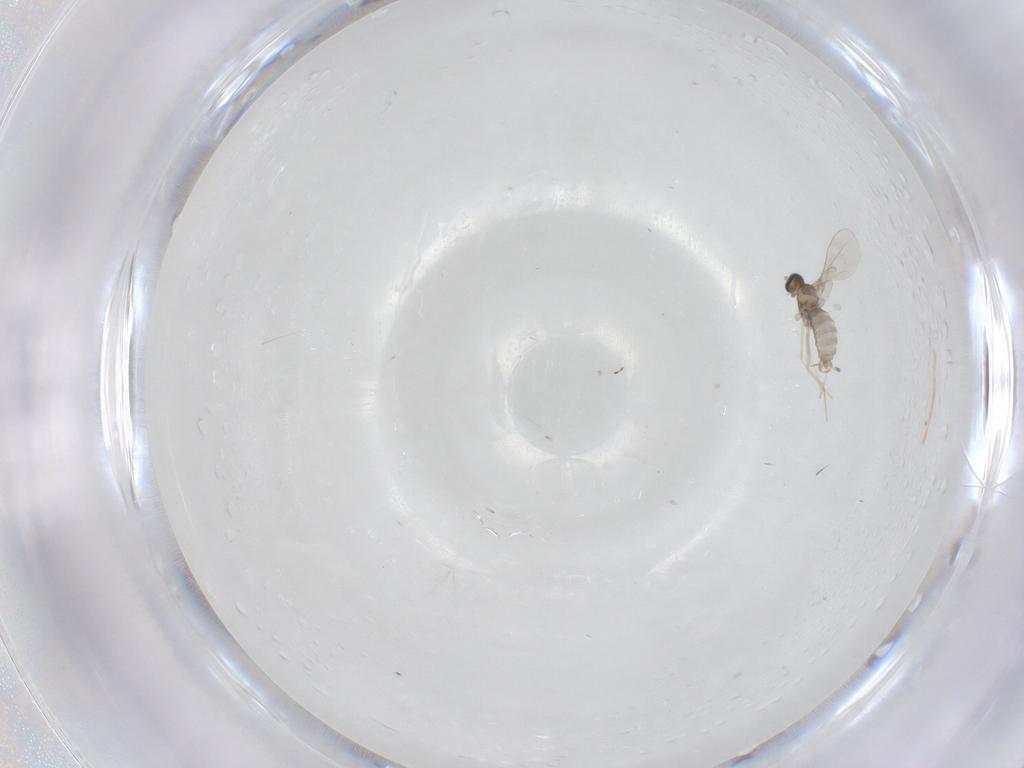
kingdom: Animalia
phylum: Arthropoda
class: Insecta
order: Diptera
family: Cecidomyiidae
